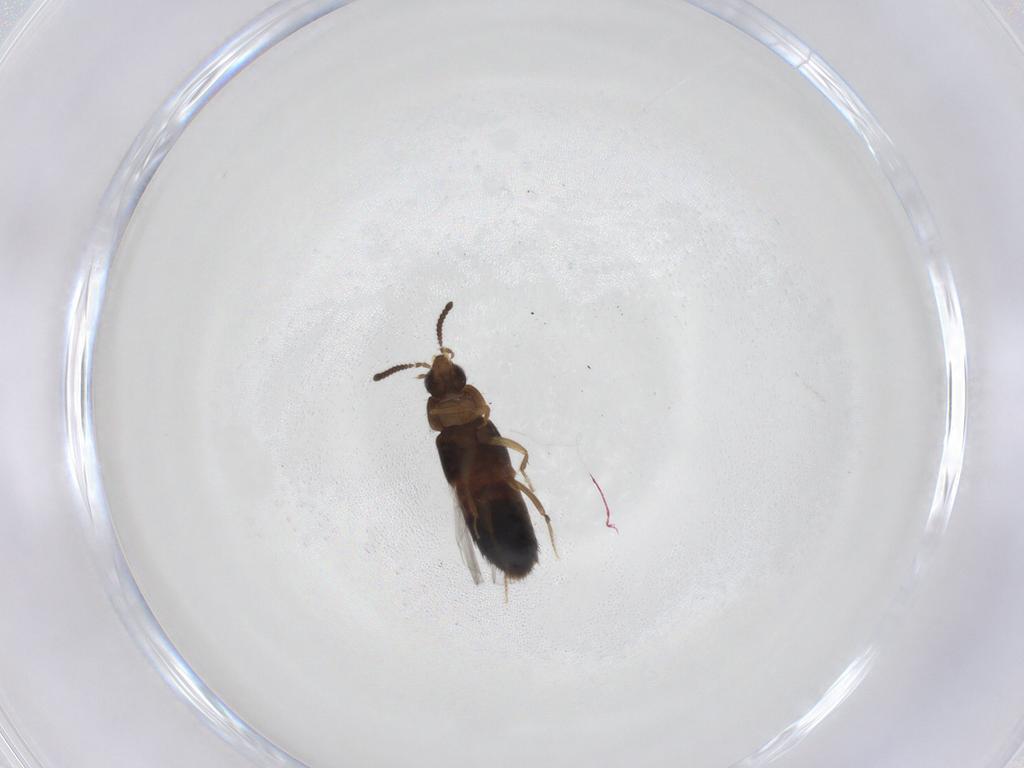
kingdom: Animalia
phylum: Arthropoda
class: Insecta
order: Coleoptera
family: Staphylinidae
